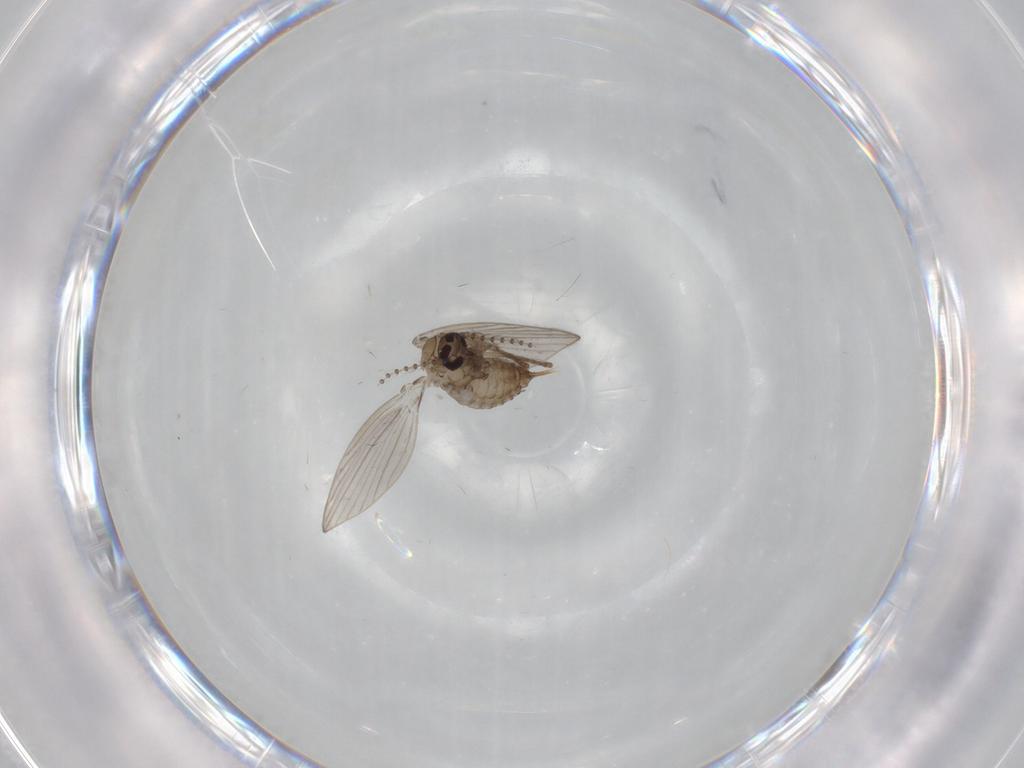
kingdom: Animalia
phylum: Arthropoda
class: Insecta
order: Diptera
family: Psychodidae
